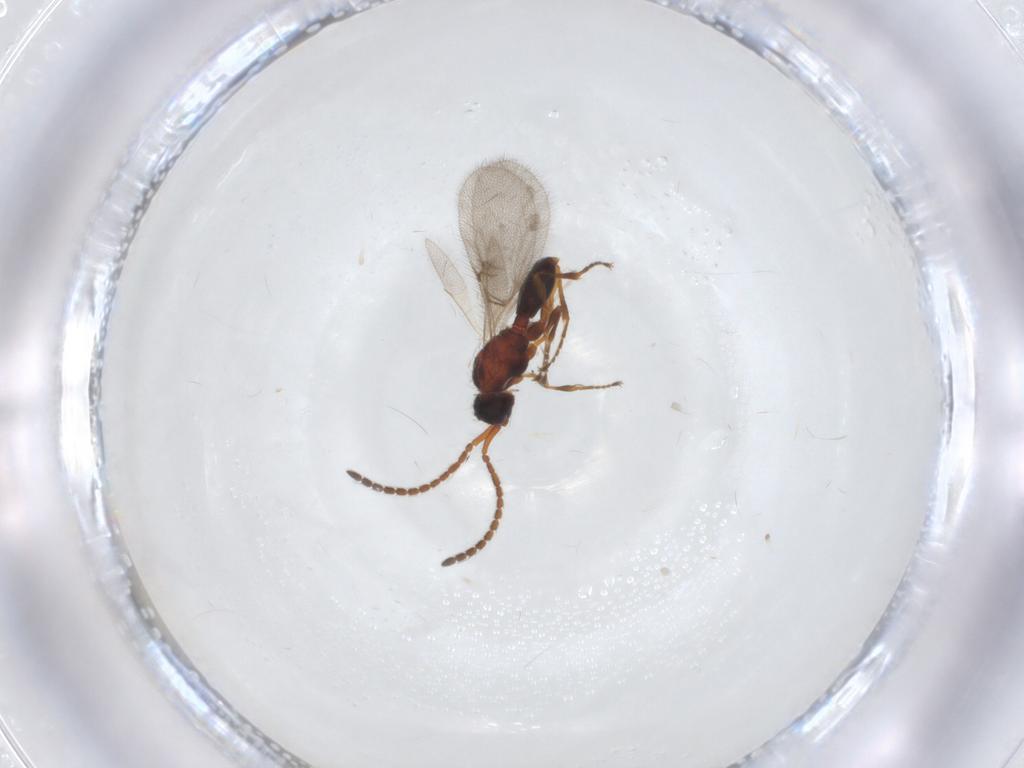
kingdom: Animalia
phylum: Arthropoda
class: Insecta
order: Hymenoptera
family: Diapriidae
